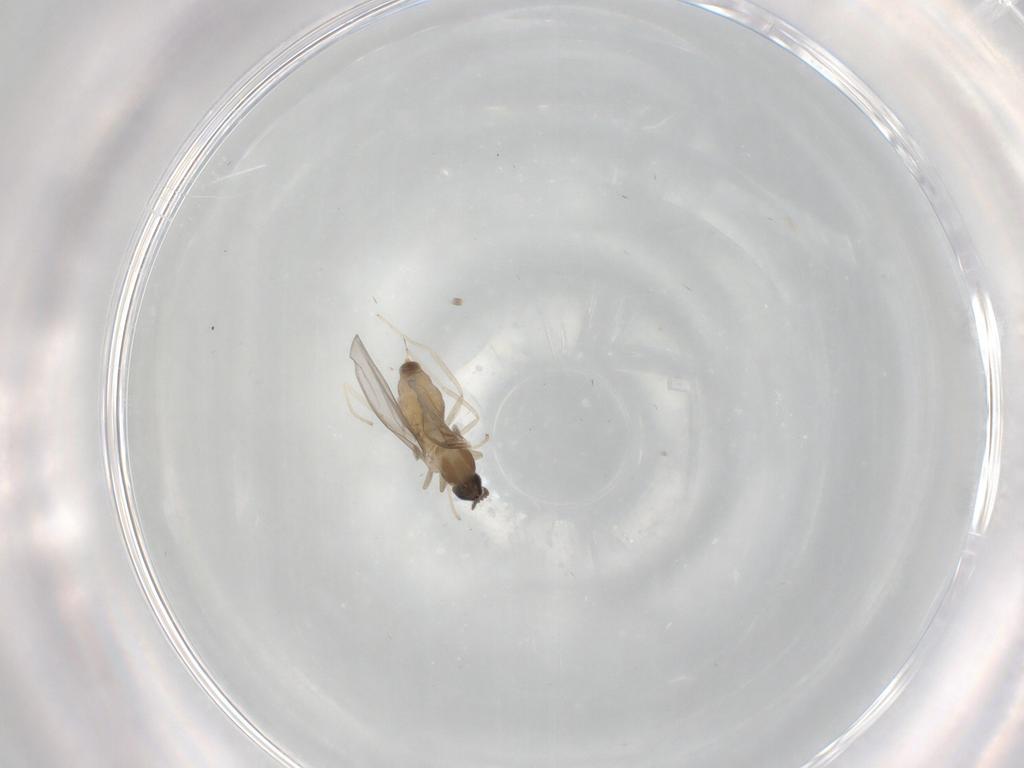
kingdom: Animalia
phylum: Arthropoda
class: Insecta
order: Diptera
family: Cecidomyiidae
